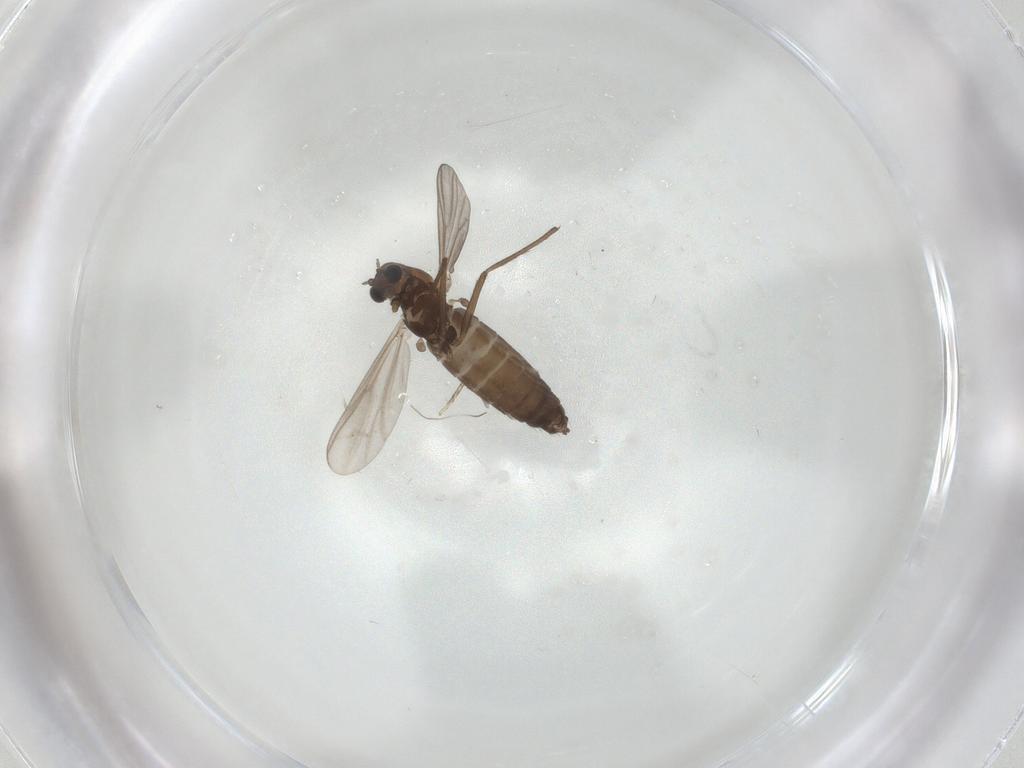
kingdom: Animalia
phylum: Arthropoda
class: Insecta
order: Diptera
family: Chironomidae
